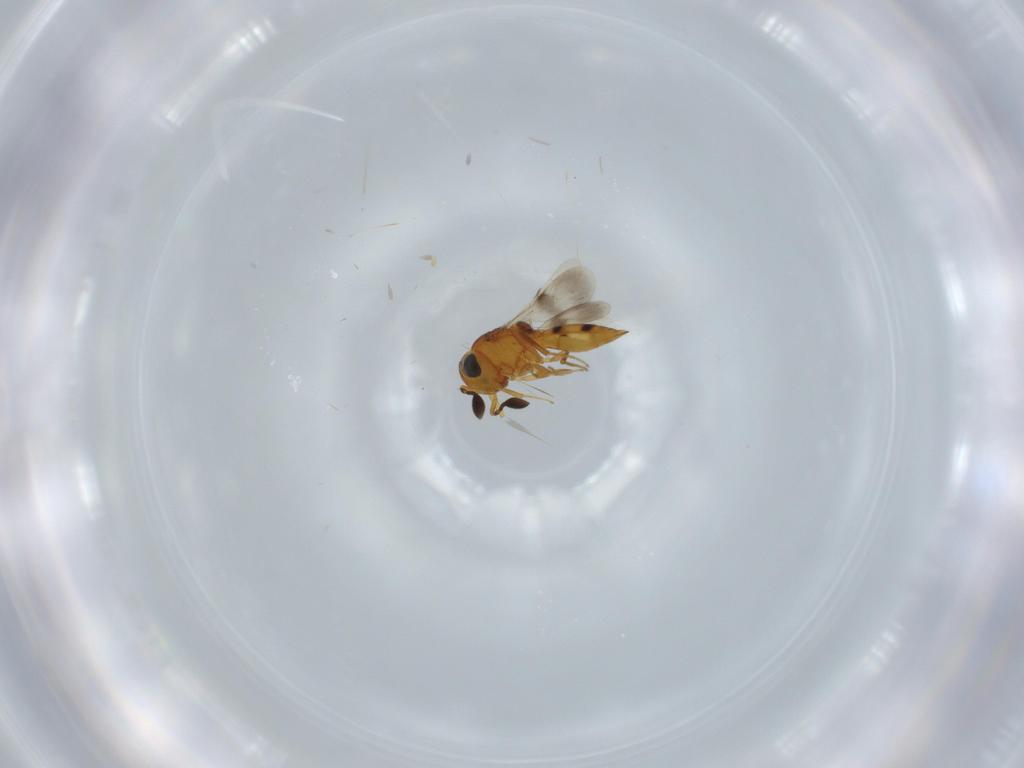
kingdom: Animalia
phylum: Arthropoda
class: Insecta
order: Hymenoptera
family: Scelionidae
